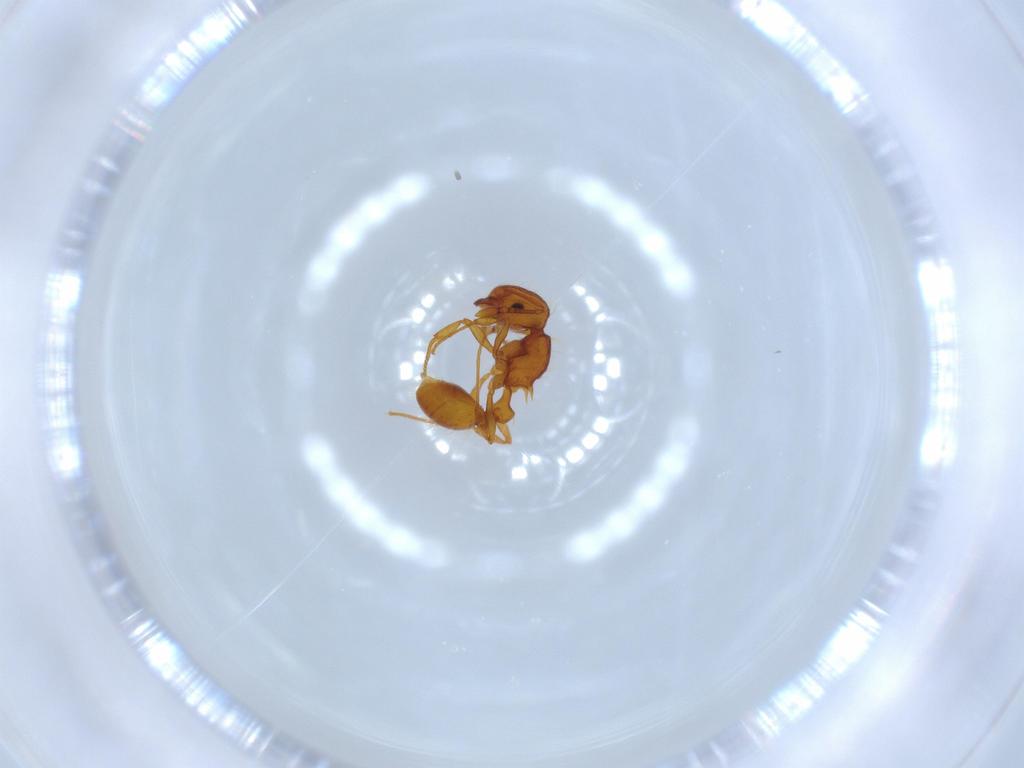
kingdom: Animalia
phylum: Arthropoda
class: Insecta
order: Hymenoptera
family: Formicidae
